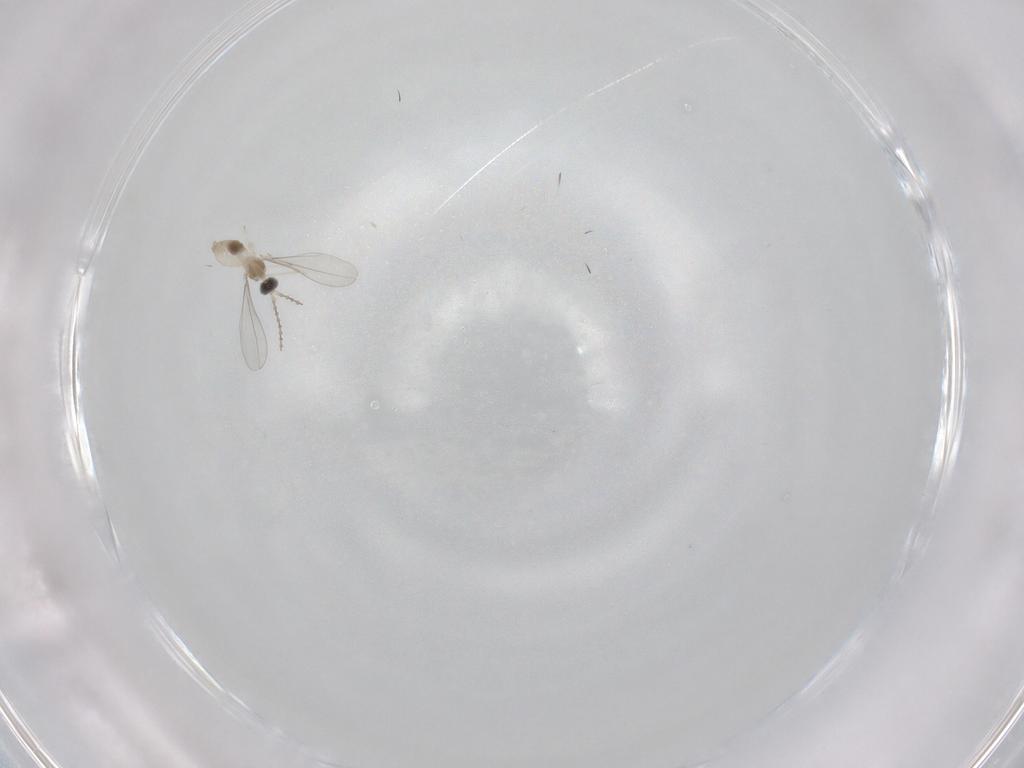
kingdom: Animalia
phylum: Arthropoda
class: Insecta
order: Diptera
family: Cecidomyiidae
